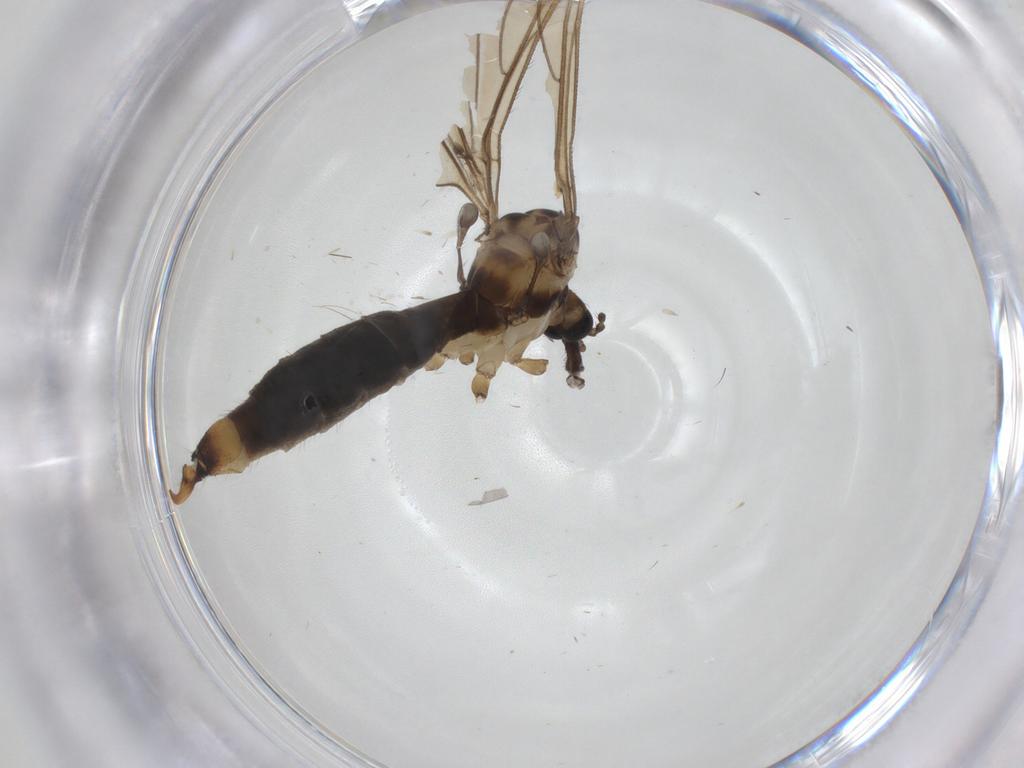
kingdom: Animalia
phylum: Arthropoda
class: Insecta
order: Diptera
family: Limoniidae
